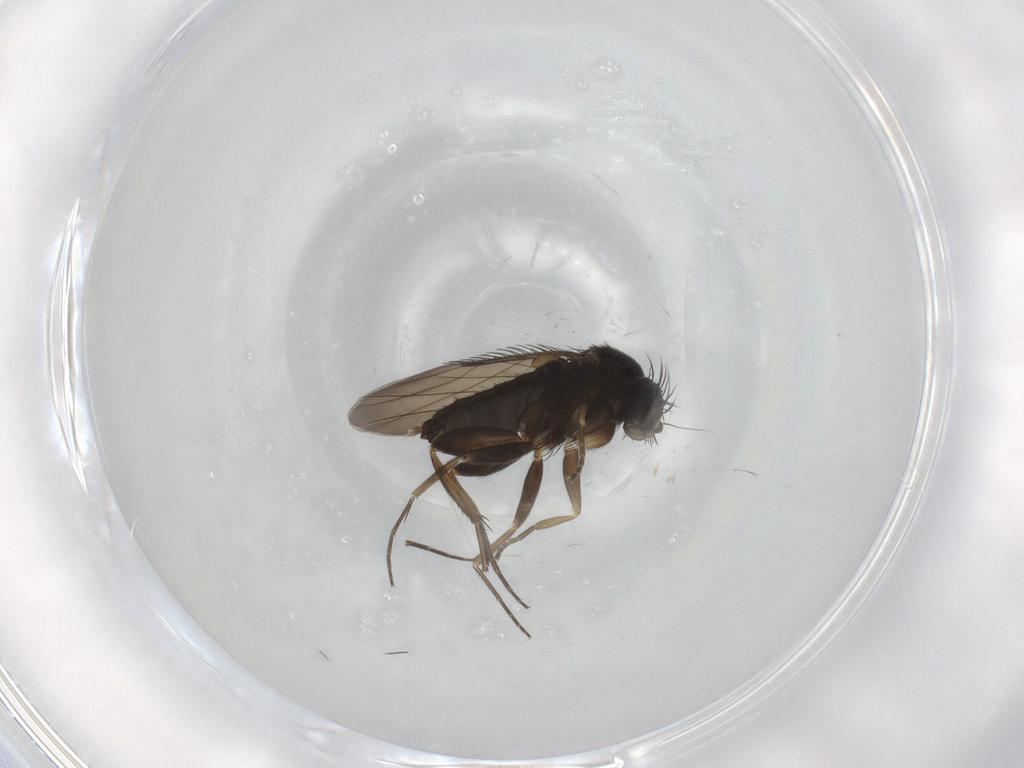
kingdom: Animalia
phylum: Arthropoda
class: Insecta
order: Diptera
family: Phoridae
